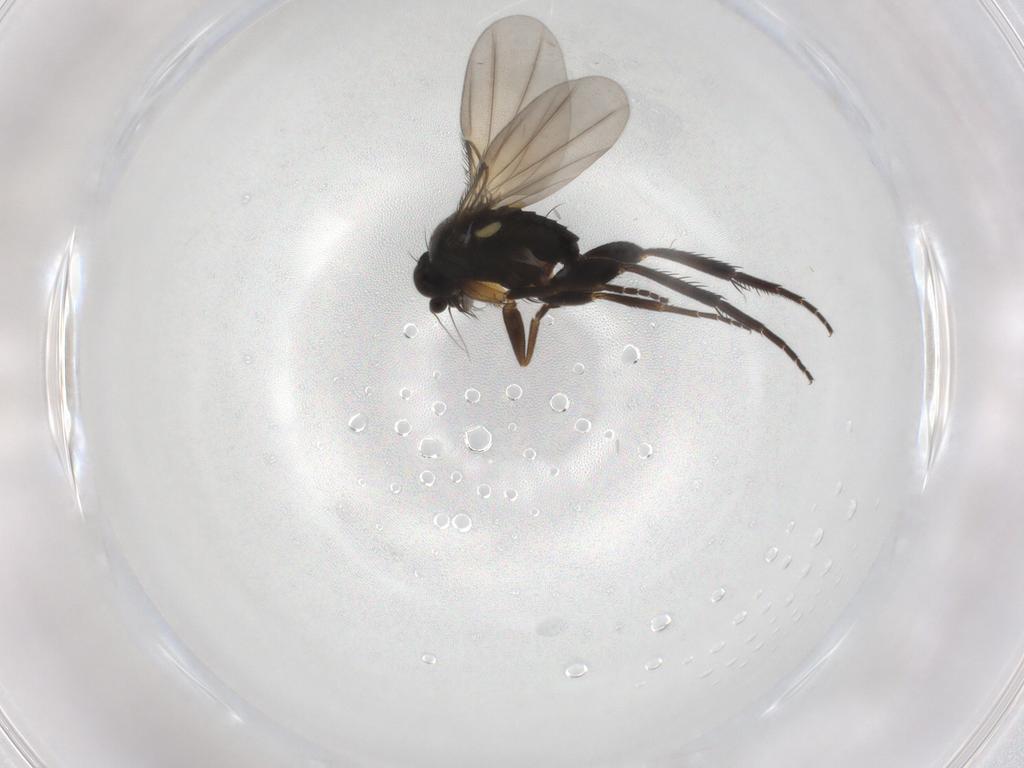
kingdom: Animalia
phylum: Arthropoda
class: Insecta
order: Diptera
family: Phoridae
